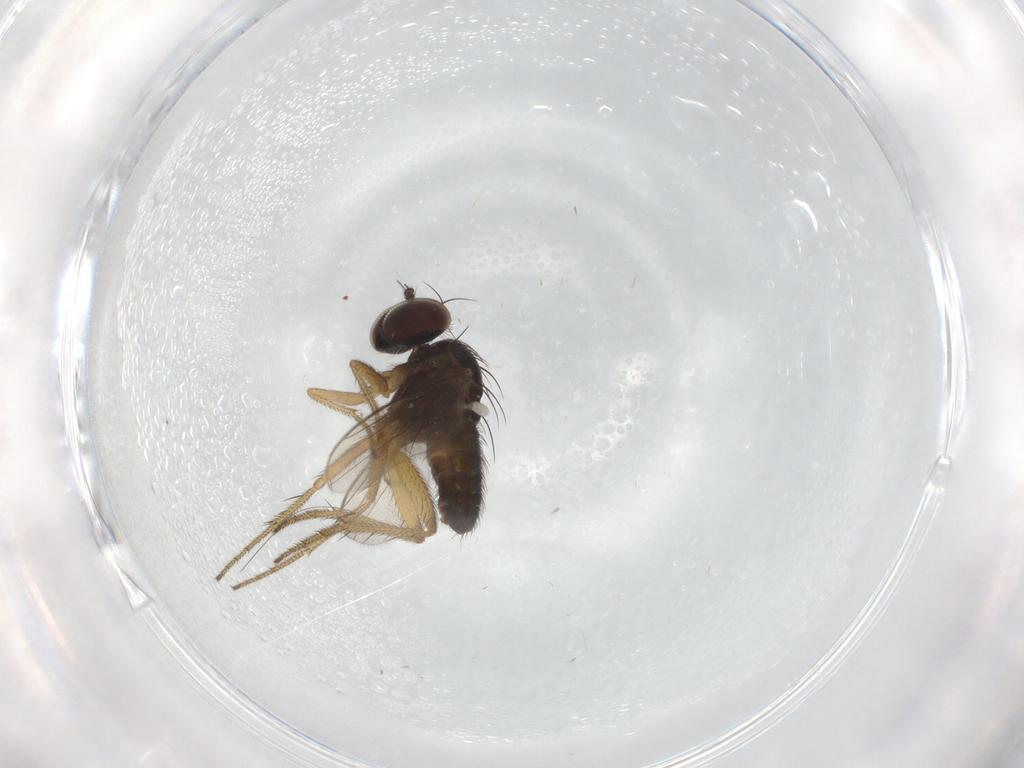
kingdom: Animalia
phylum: Arthropoda
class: Insecta
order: Diptera
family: Dolichopodidae
